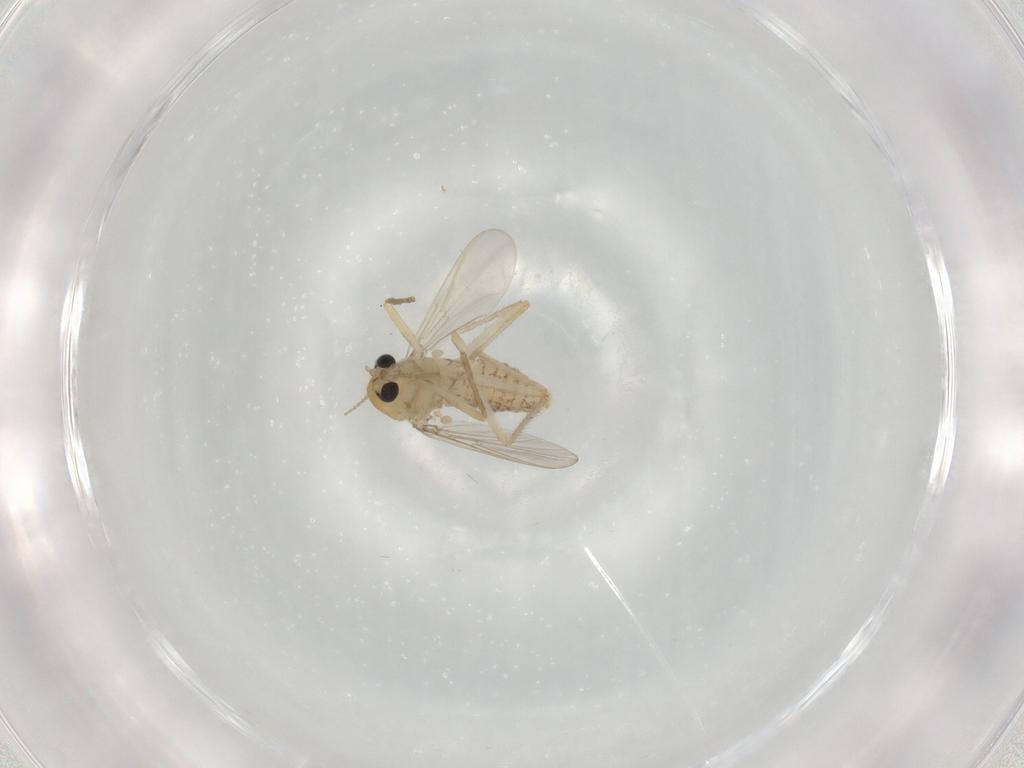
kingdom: Animalia
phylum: Arthropoda
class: Insecta
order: Diptera
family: Chironomidae
